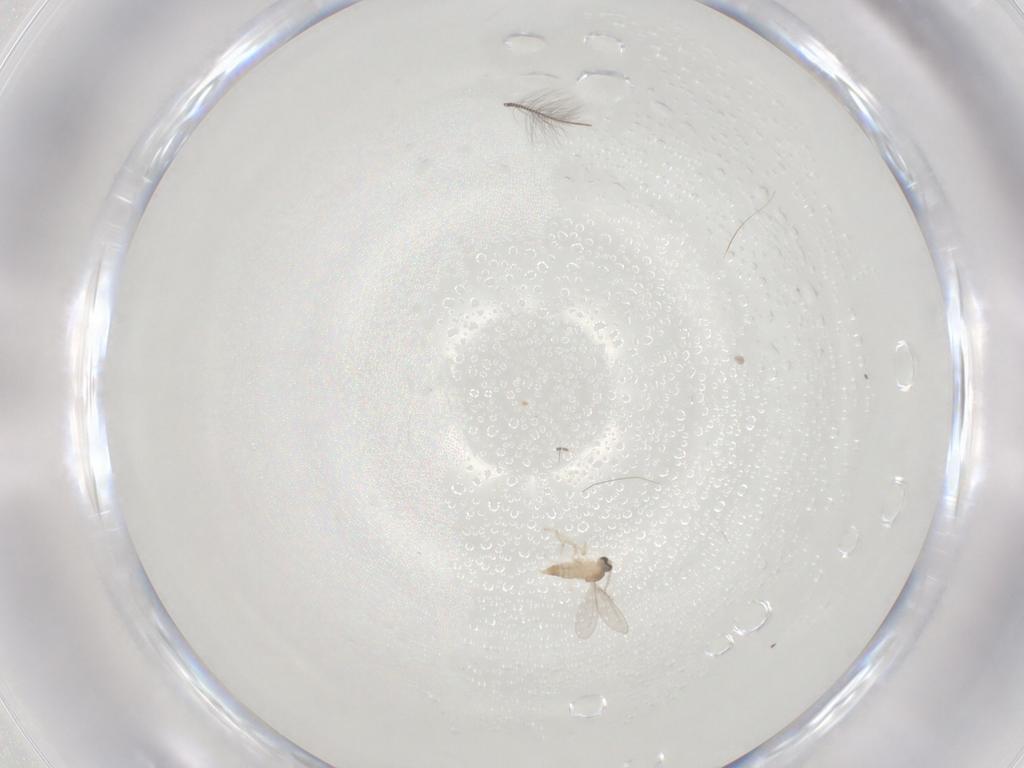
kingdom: Animalia
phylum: Arthropoda
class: Insecta
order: Diptera
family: Cecidomyiidae
